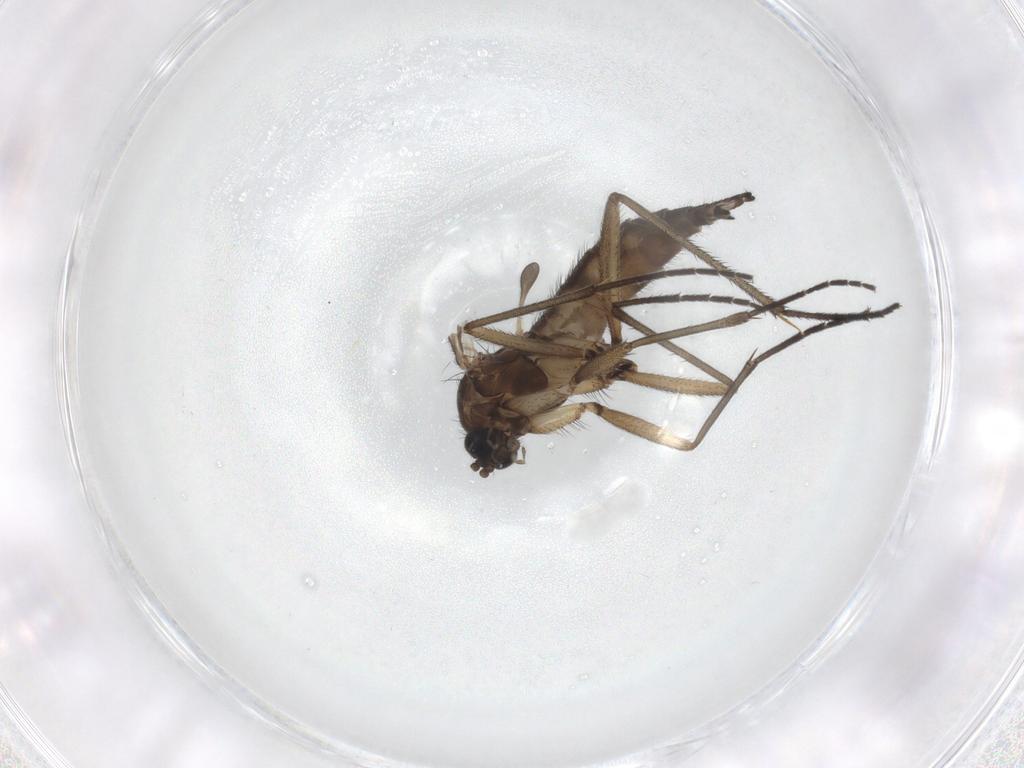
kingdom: Animalia
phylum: Arthropoda
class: Insecta
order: Diptera
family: Sciaridae
